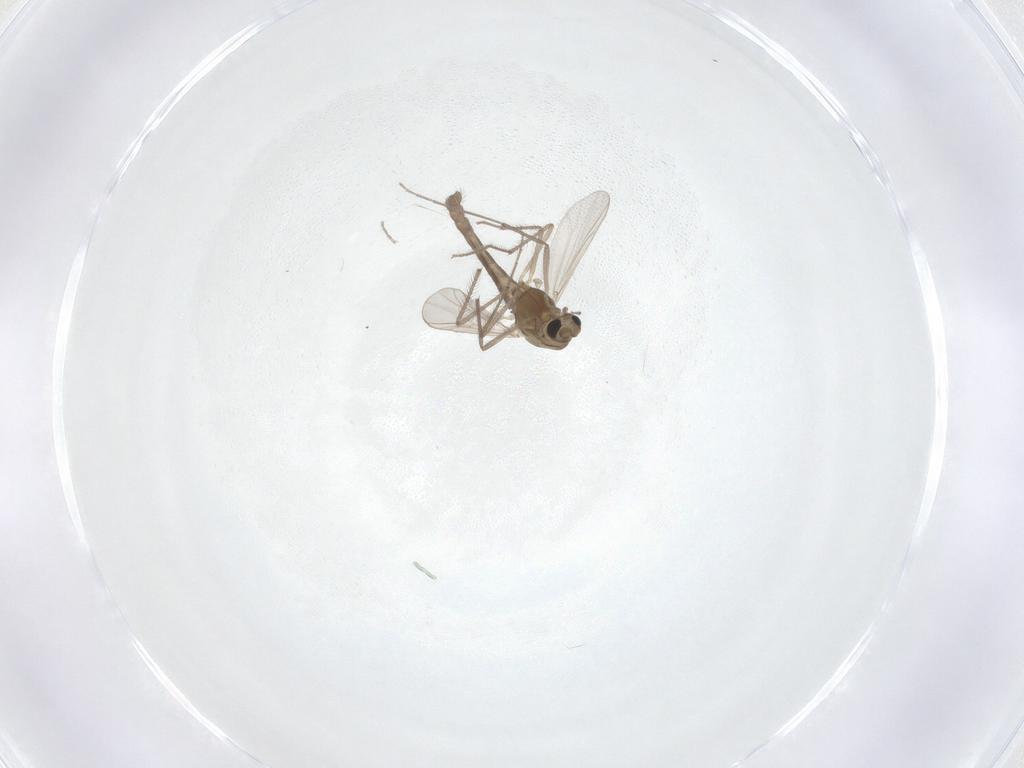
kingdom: Animalia
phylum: Arthropoda
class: Insecta
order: Diptera
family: Chironomidae
